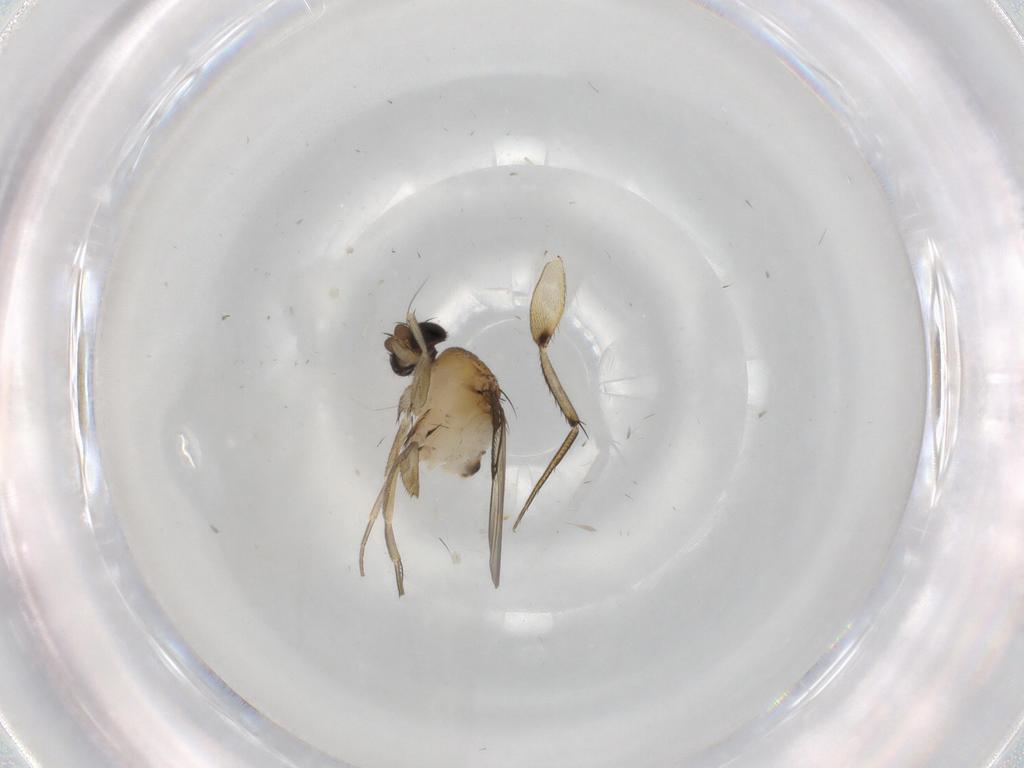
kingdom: Animalia
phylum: Arthropoda
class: Insecta
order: Diptera
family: Phoridae
